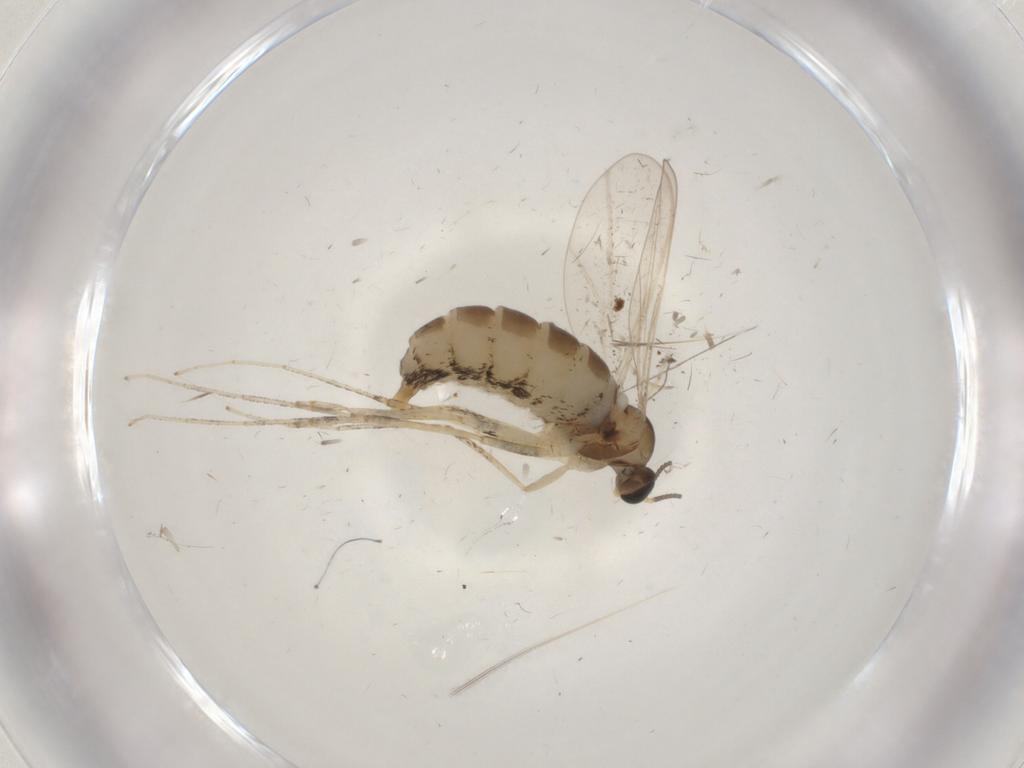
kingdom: Animalia
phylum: Arthropoda
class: Insecta
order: Diptera
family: Cecidomyiidae
